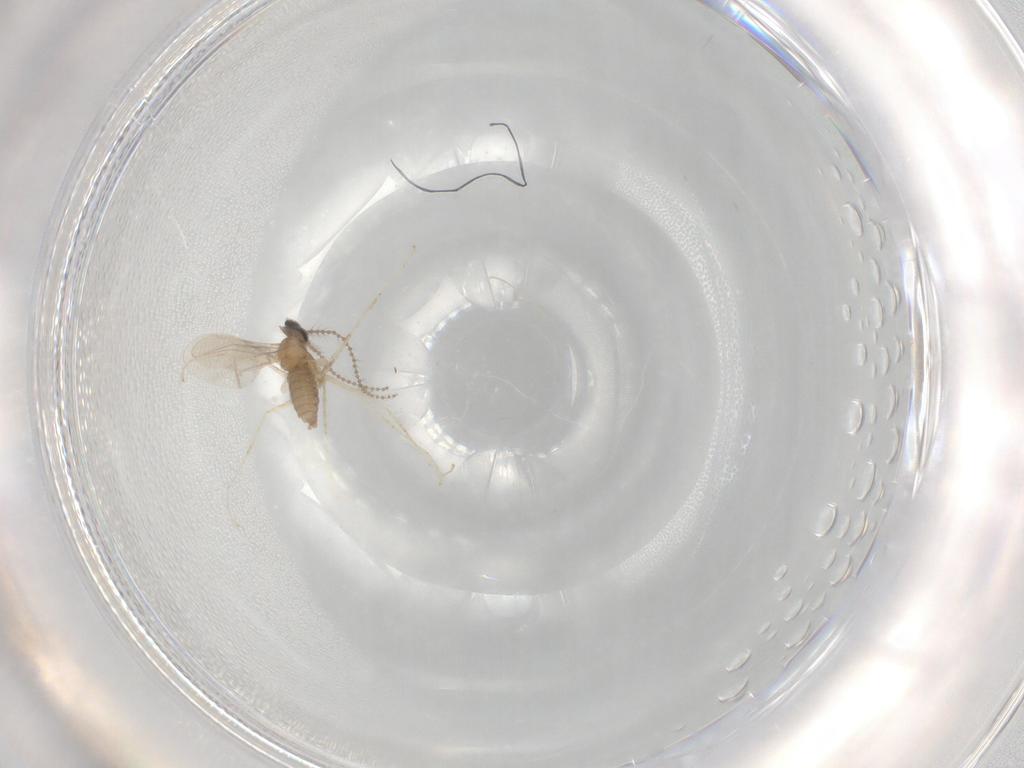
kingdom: Animalia
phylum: Arthropoda
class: Insecta
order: Diptera
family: Cecidomyiidae
